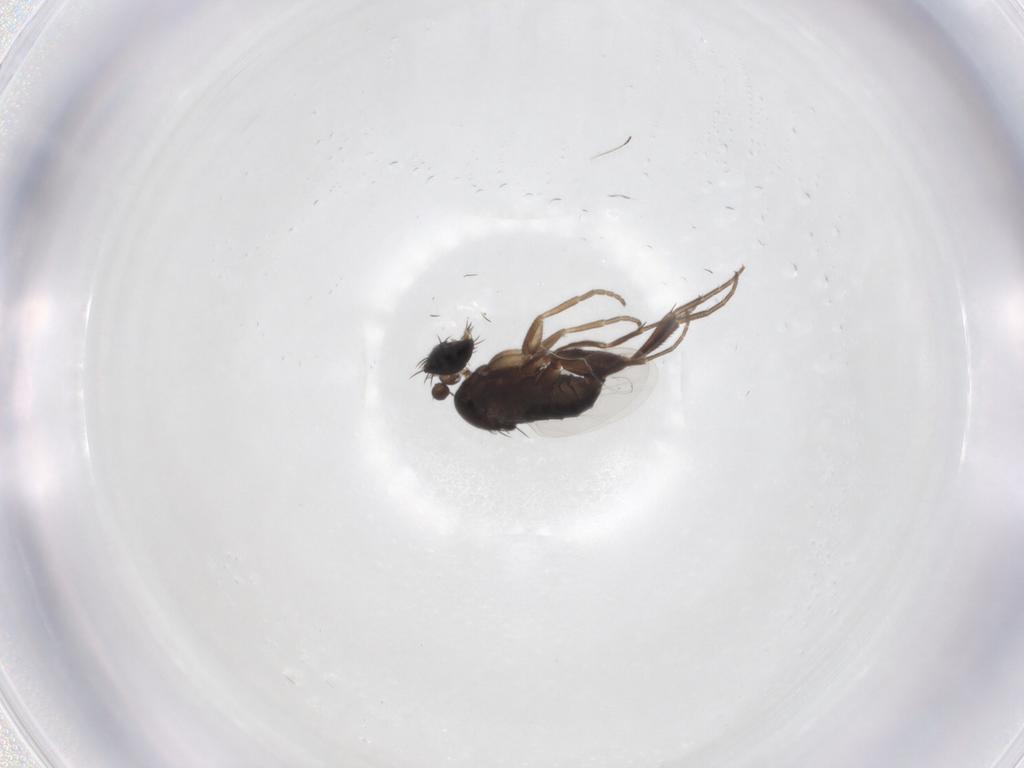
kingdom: Animalia
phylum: Arthropoda
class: Insecta
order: Diptera
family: Phoridae
